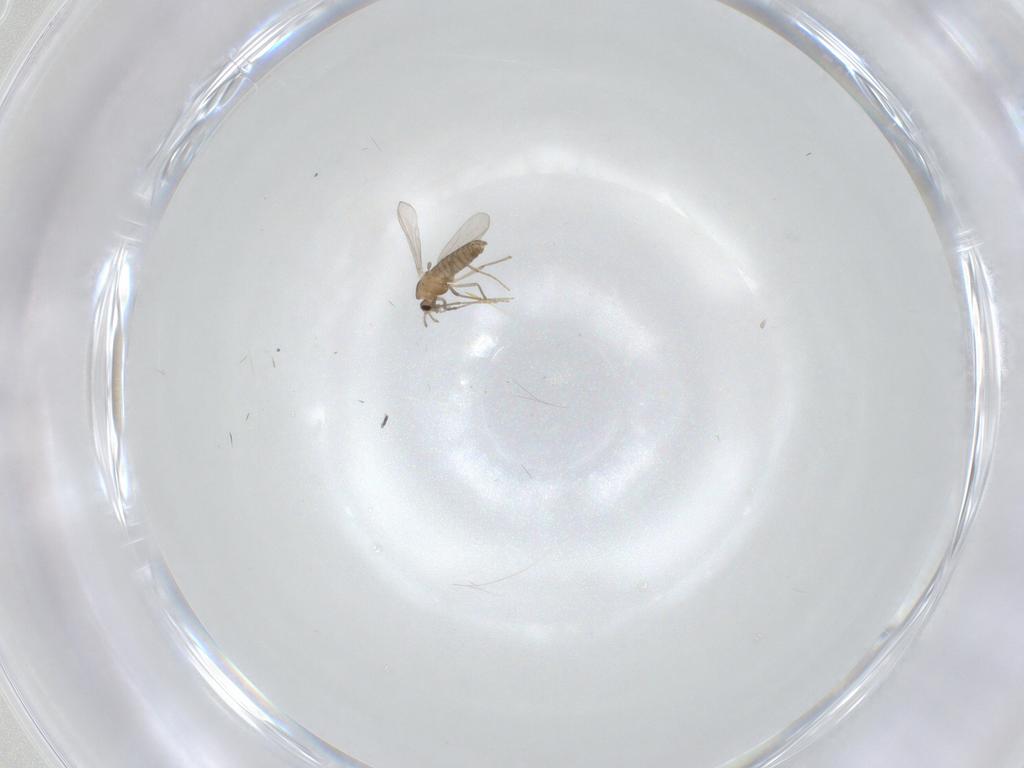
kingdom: Animalia
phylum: Arthropoda
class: Insecta
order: Diptera
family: Chironomidae
